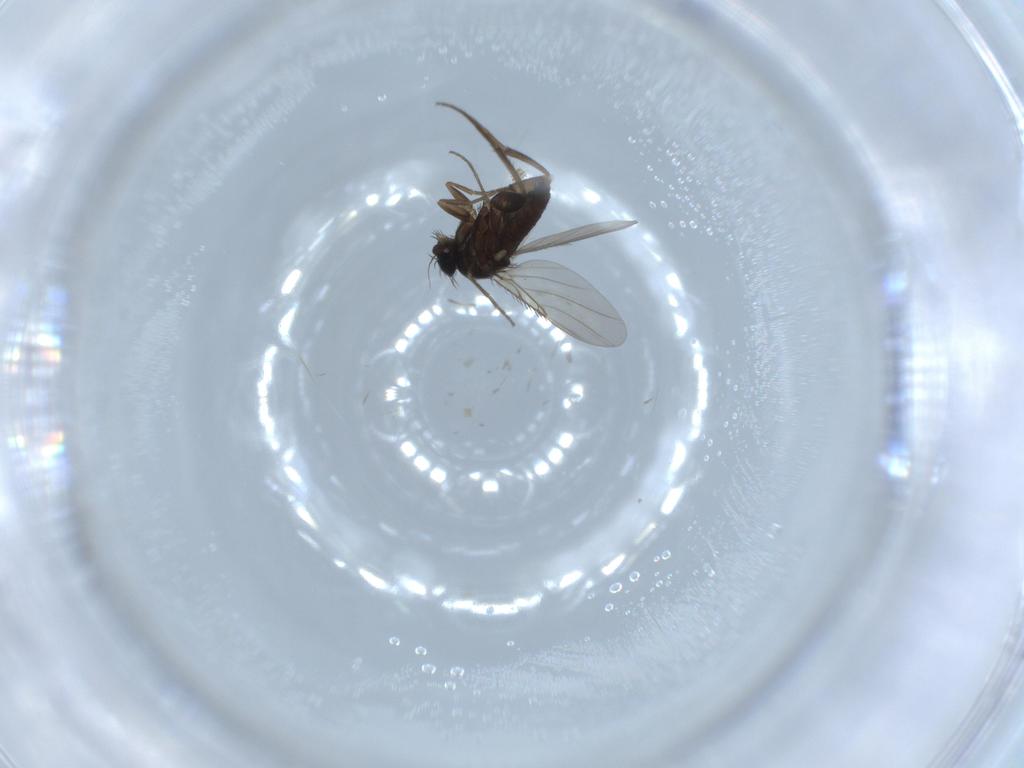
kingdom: Animalia
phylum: Arthropoda
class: Insecta
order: Diptera
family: Phoridae
